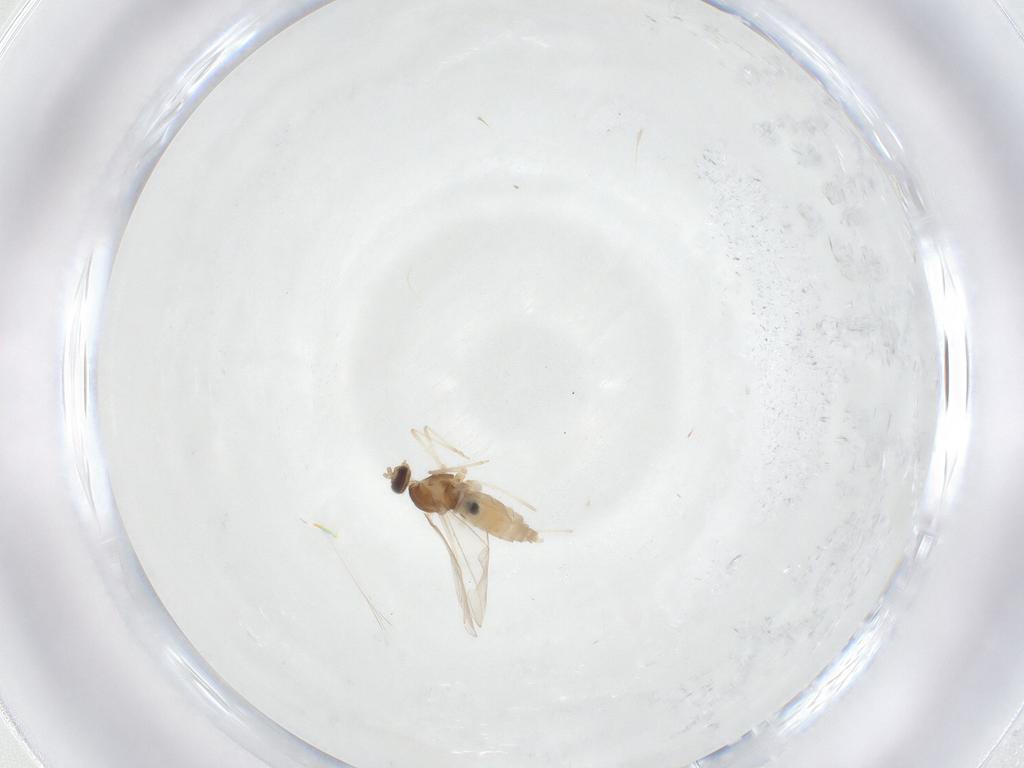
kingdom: Animalia
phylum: Arthropoda
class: Insecta
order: Diptera
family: Cecidomyiidae
